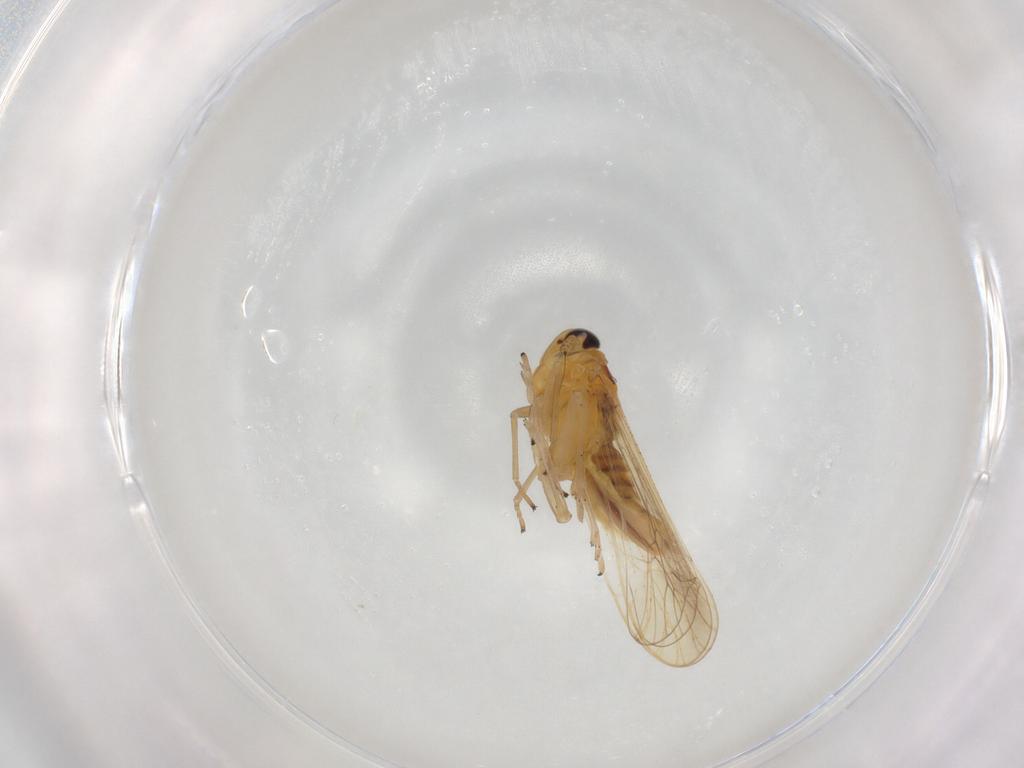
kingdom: Animalia
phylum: Arthropoda
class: Insecta
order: Hemiptera
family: Delphacidae
